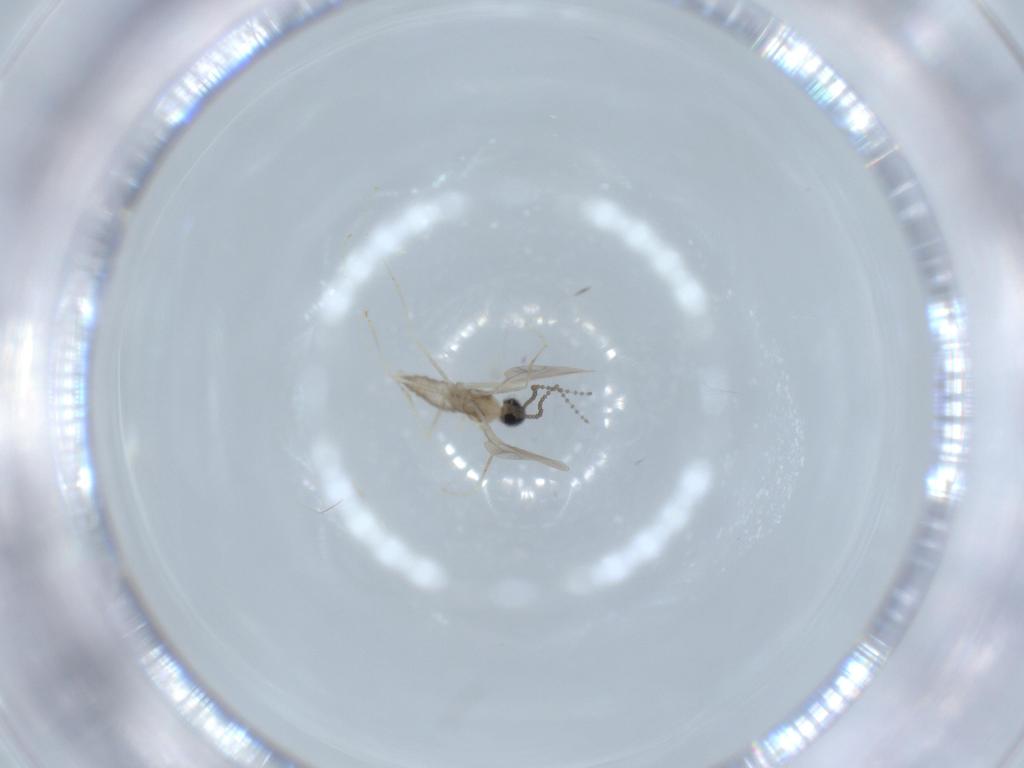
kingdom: Animalia
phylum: Arthropoda
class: Insecta
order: Diptera
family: Cecidomyiidae
